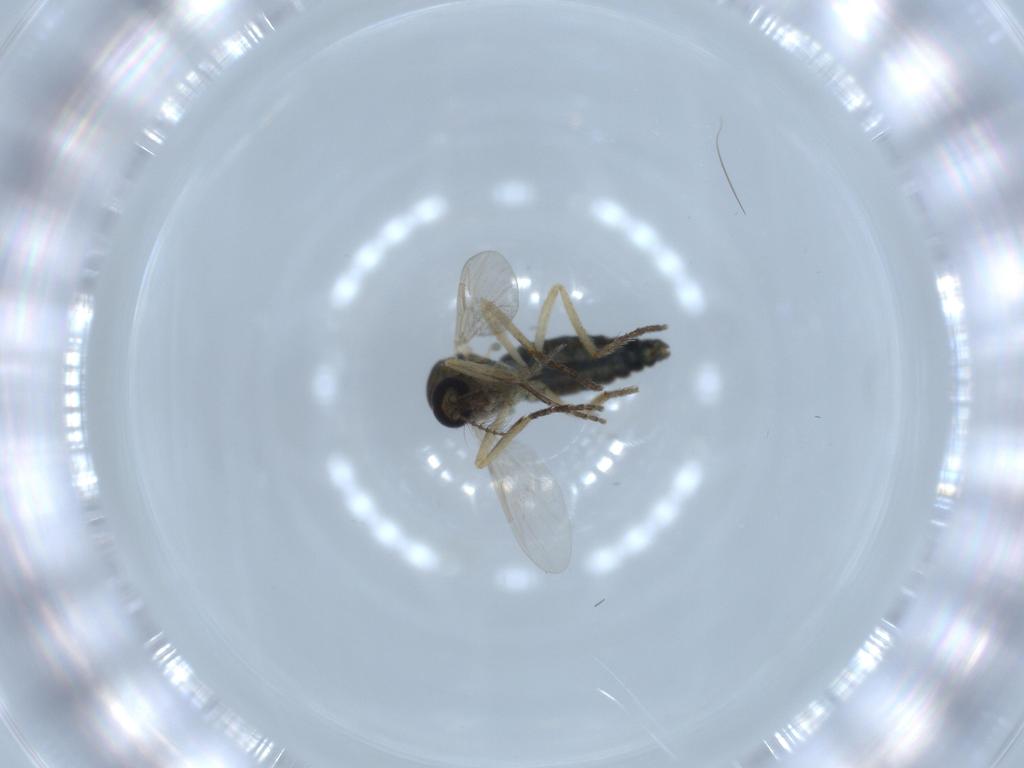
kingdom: Animalia
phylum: Arthropoda
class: Insecta
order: Diptera
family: Ceratopogonidae
